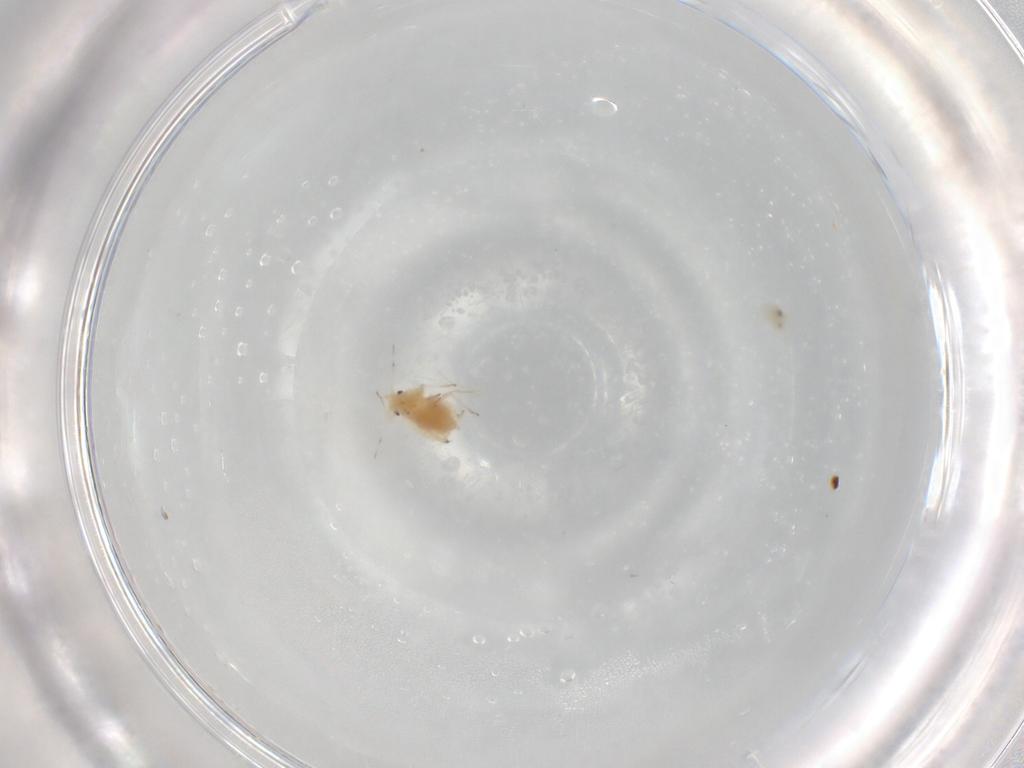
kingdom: Animalia
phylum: Arthropoda
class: Insecta
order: Hemiptera
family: Aphididae
